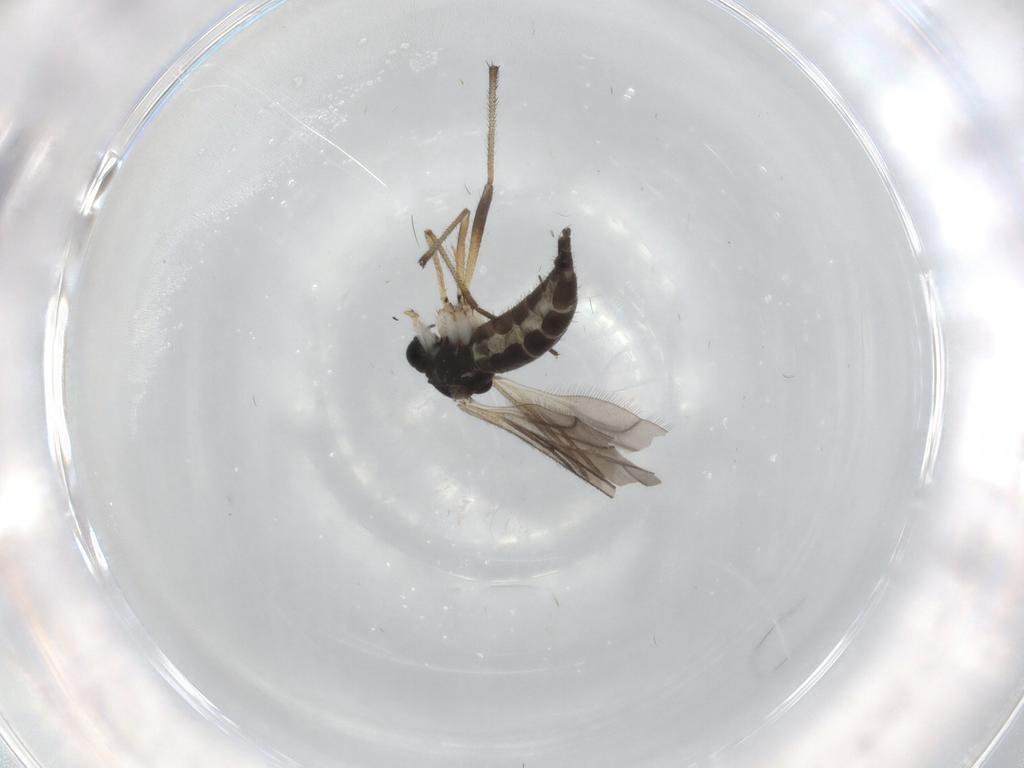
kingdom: Animalia
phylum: Arthropoda
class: Insecta
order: Diptera
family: Sciaridae
